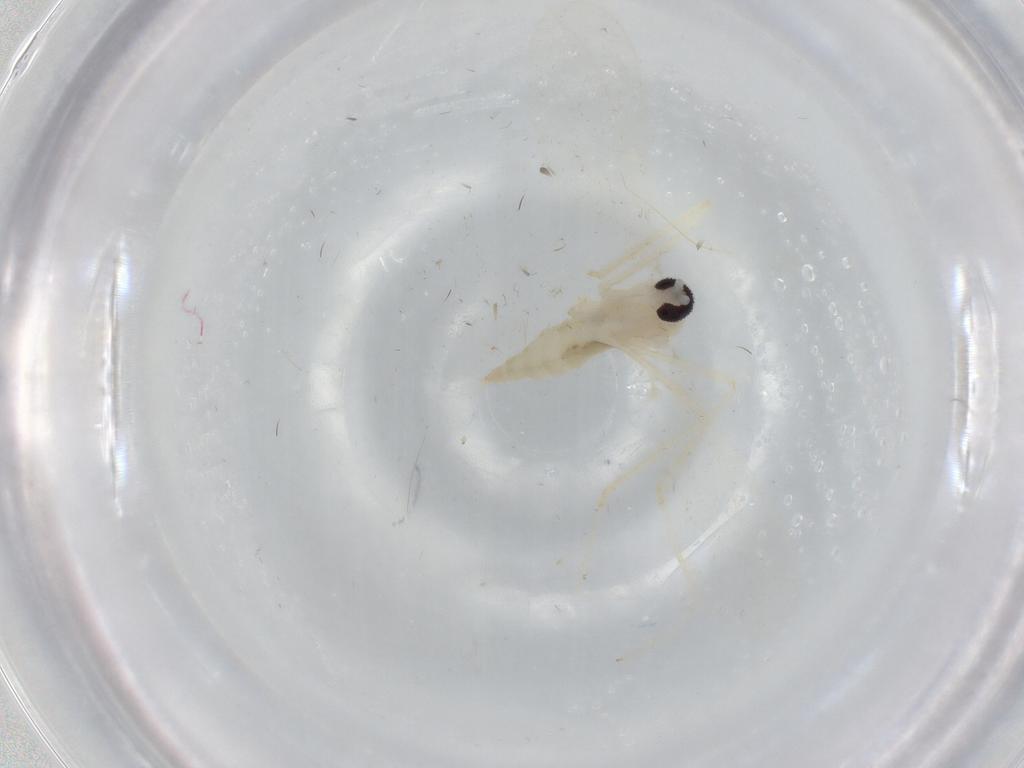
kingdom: Animalia
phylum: Arthropoda
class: Insecta
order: Diptera
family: Cecidomyiidae
